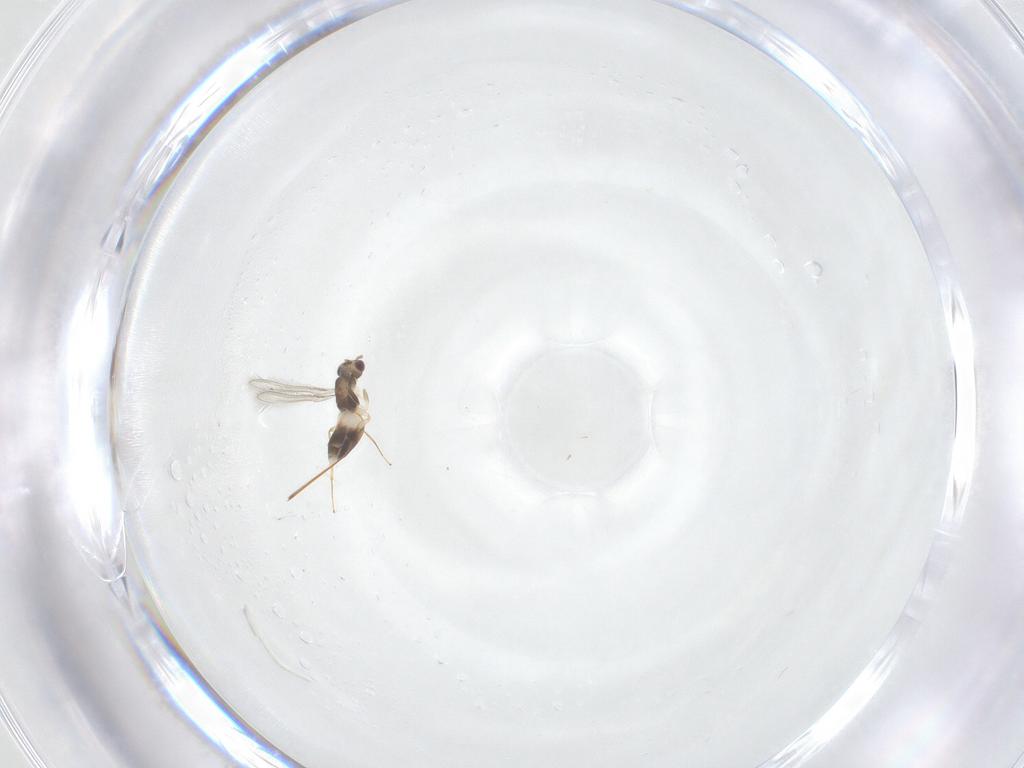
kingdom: Animalia
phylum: Arthropoda
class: Insecta
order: Hymenoptera
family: Mymaridae
